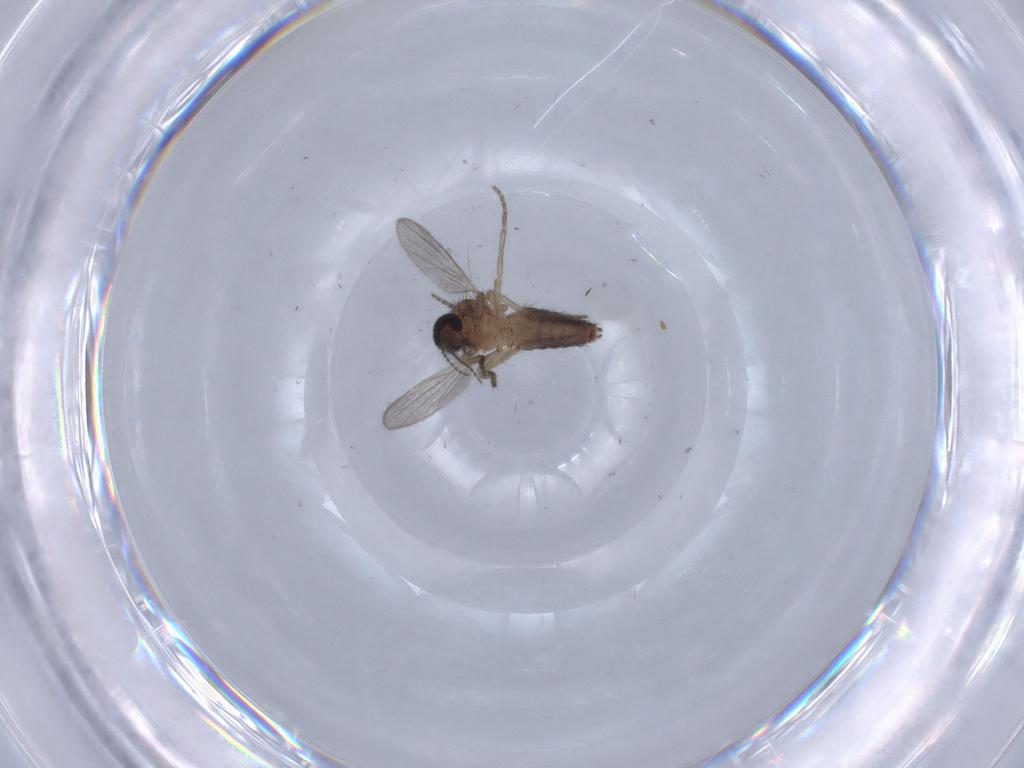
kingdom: Animalia
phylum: Arthropoda
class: Insecta
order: Diptera
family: Ceratopogonidae
